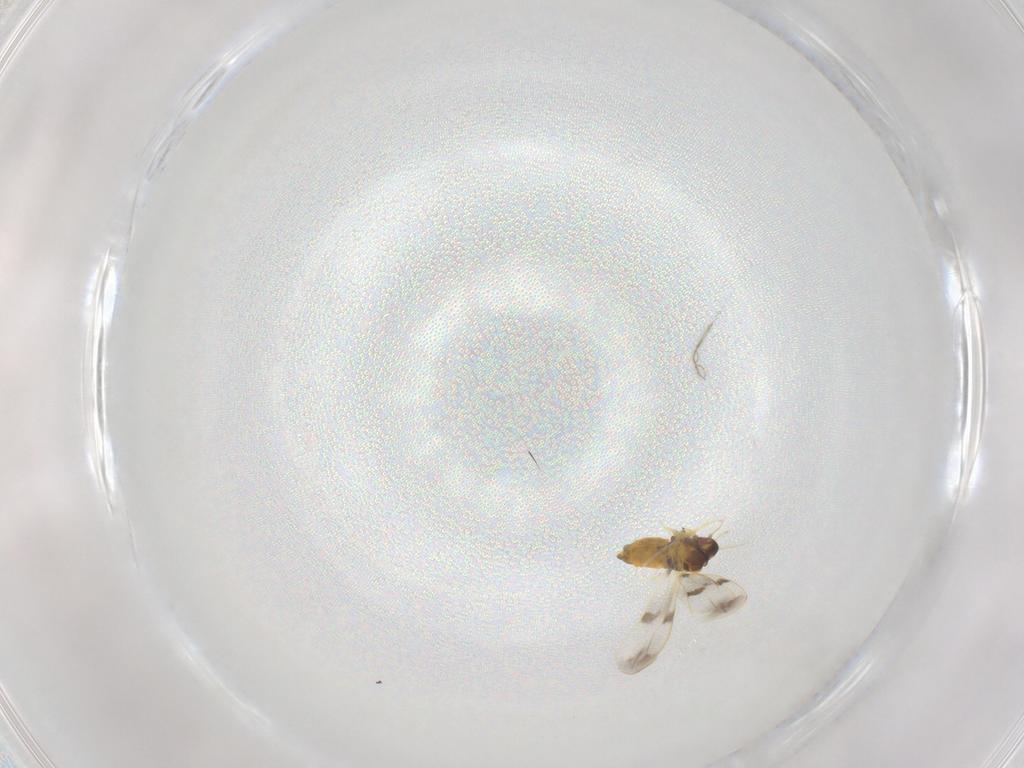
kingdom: Animalia
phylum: Arthropoda
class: Insecta
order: Hemiptera
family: Aleyrodidae
